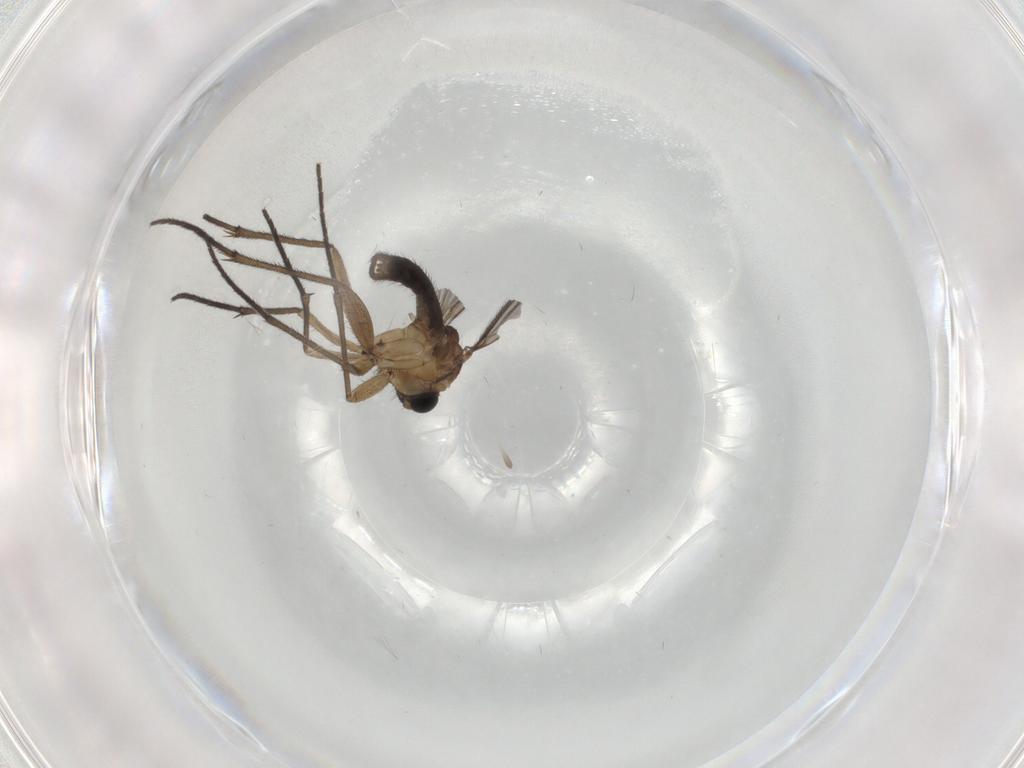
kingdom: Animalia
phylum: Arthropoda
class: Insecta
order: Diptera
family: Sciaridae
